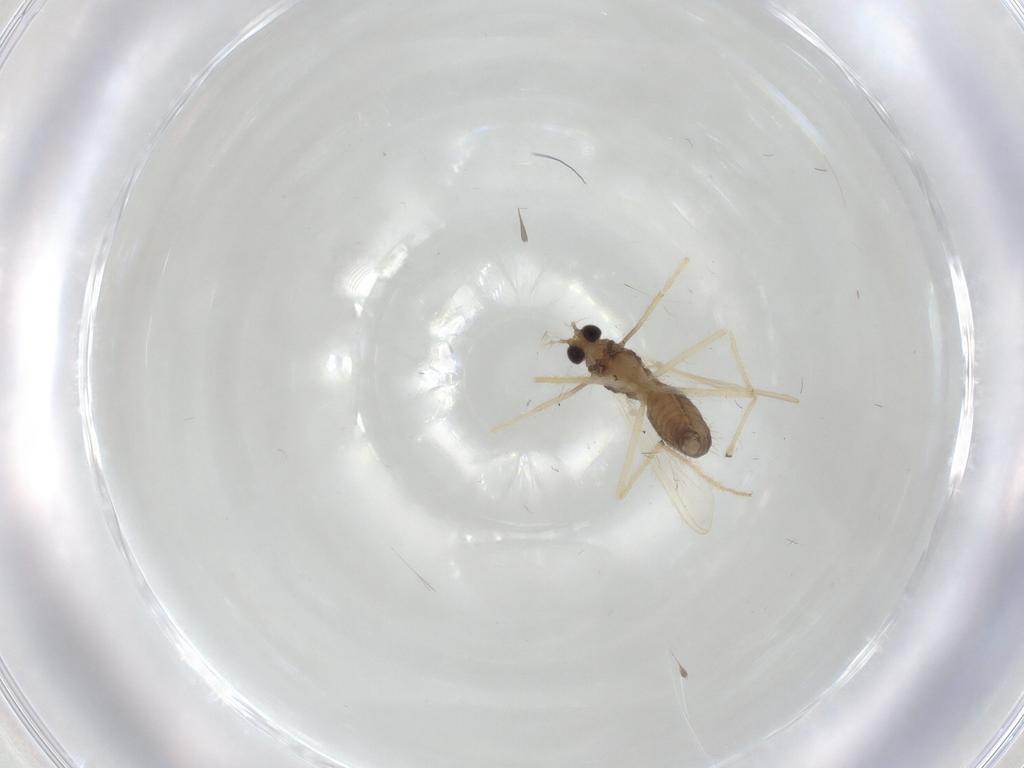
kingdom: Animalia
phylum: Arthropoda
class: Insecta
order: Diptera
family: Chironomidae
